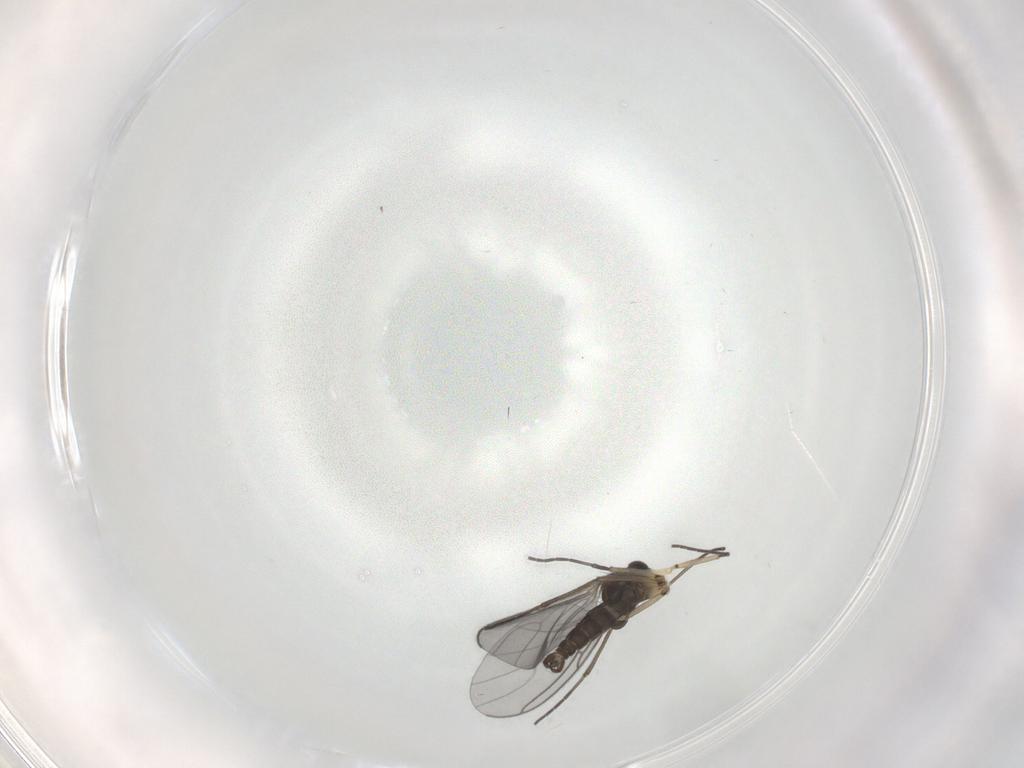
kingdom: Animalia
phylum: Arthropoda
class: Insecta
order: Diptera
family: Sciaridae
